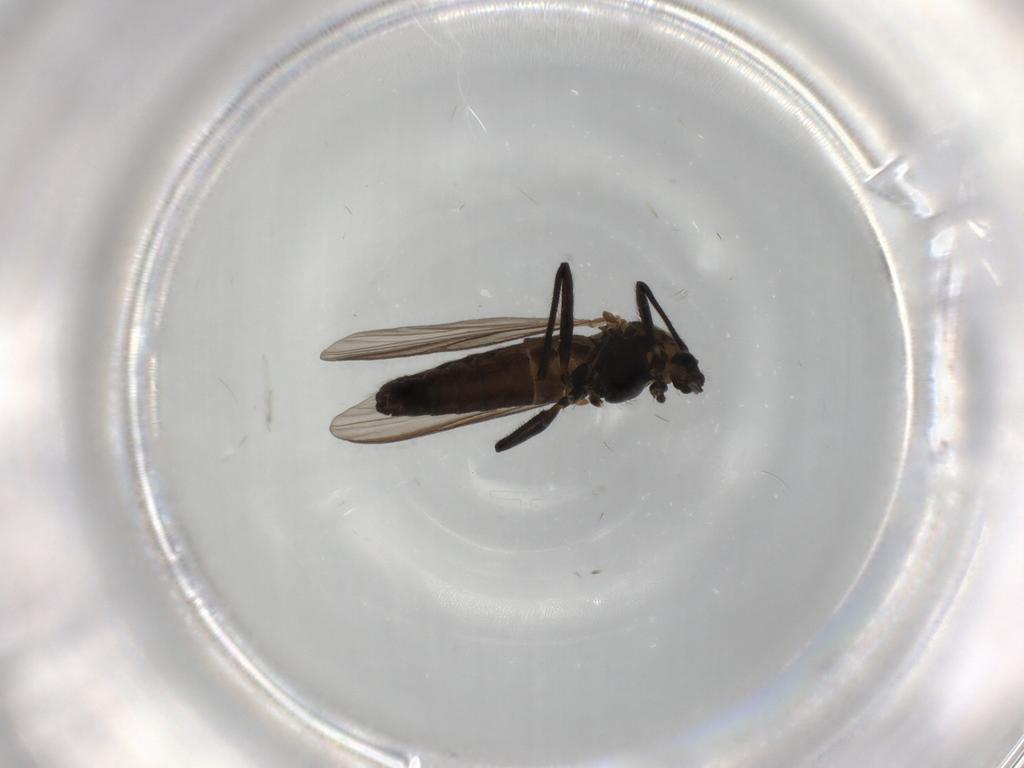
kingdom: Animalia
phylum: Arthropoda
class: Insecta
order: Diptera
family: Chironomidae
